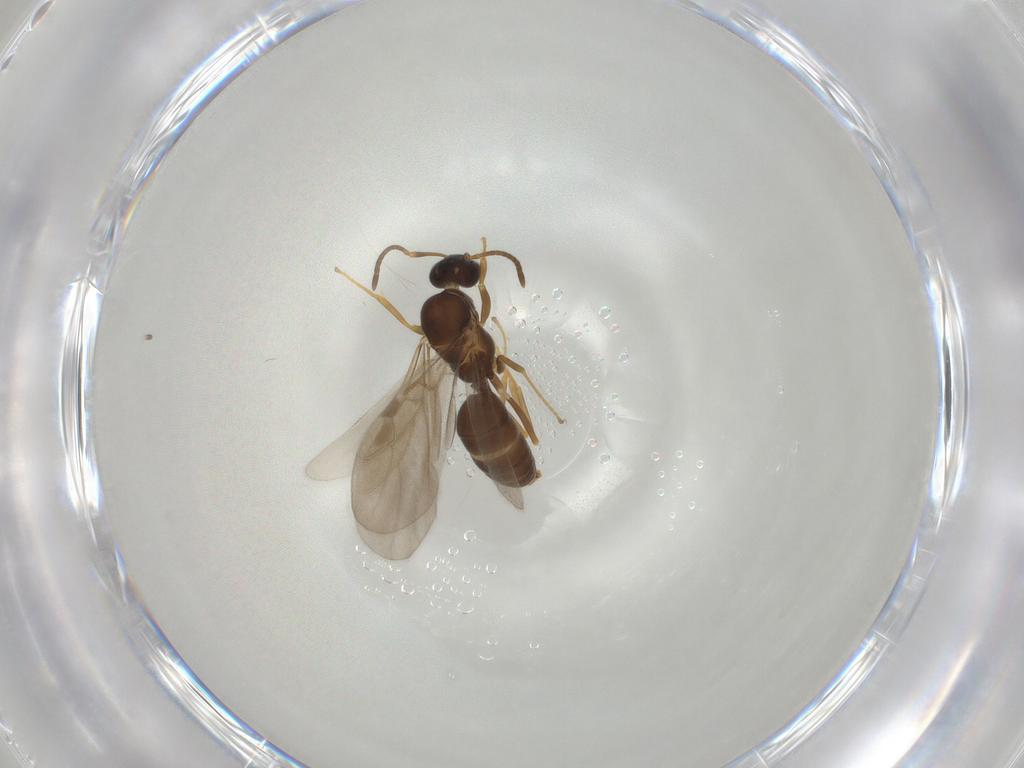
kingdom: Animalia
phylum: Arthropoda
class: Insecta
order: Hymenoptera
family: Formicidae
